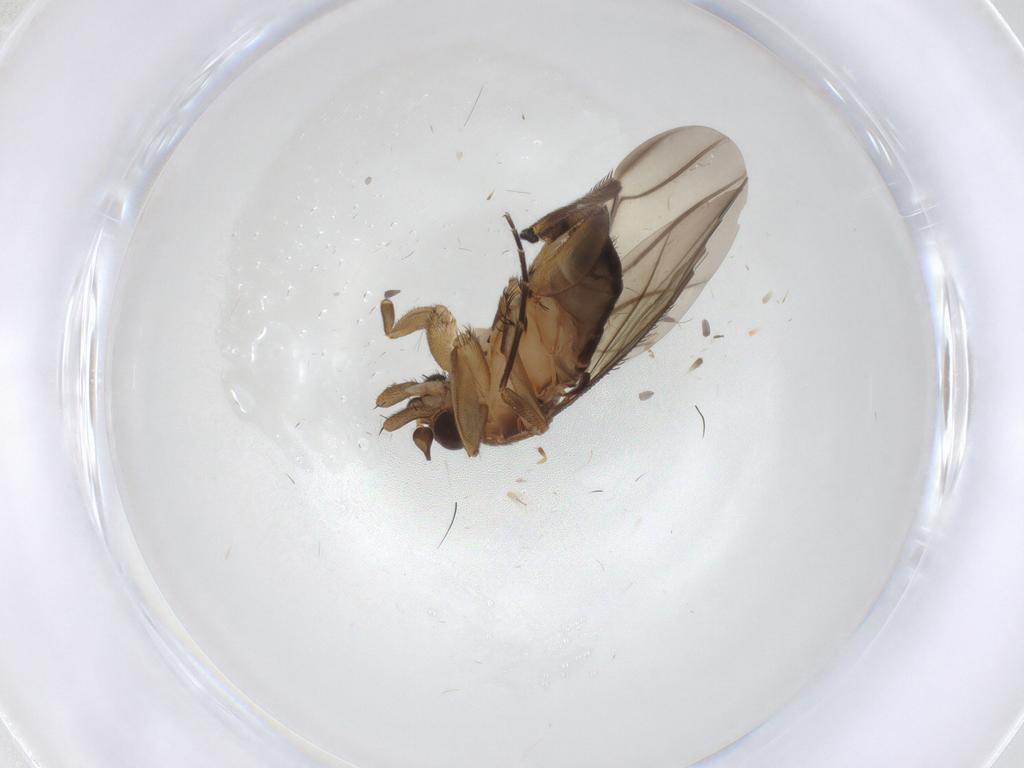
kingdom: Animalia
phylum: Arthropoda
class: Insecta
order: Diptera
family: Phoridae
